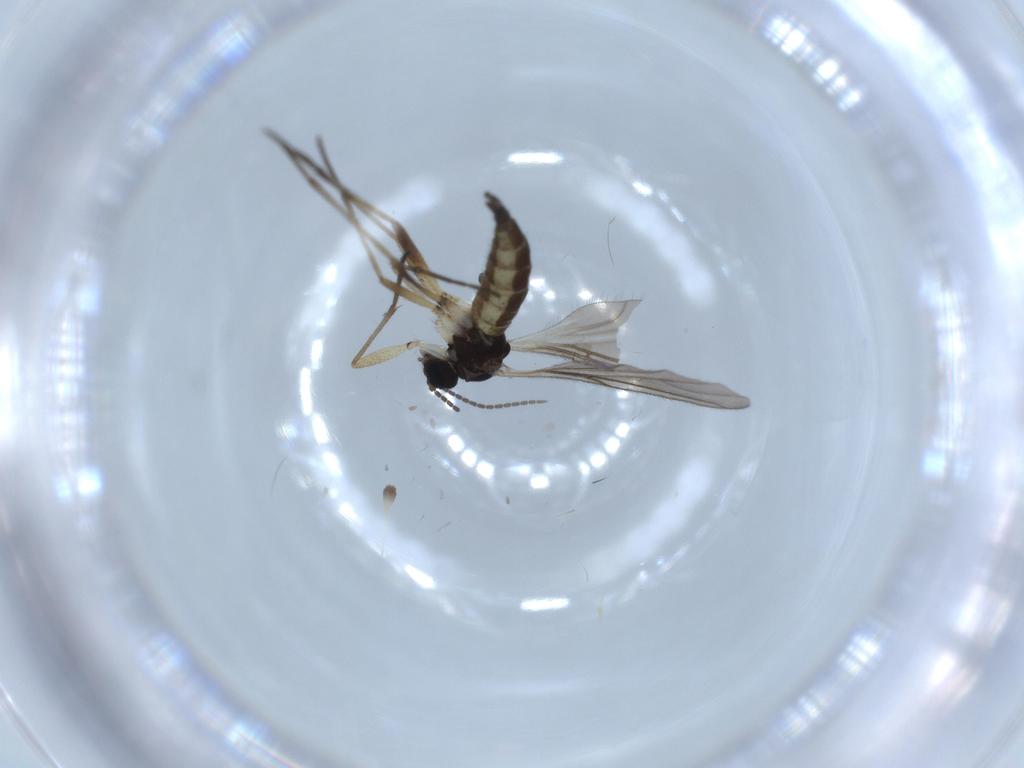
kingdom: Animalia
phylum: Arthropoda
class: Insecta
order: Diptera
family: Sciaridae
